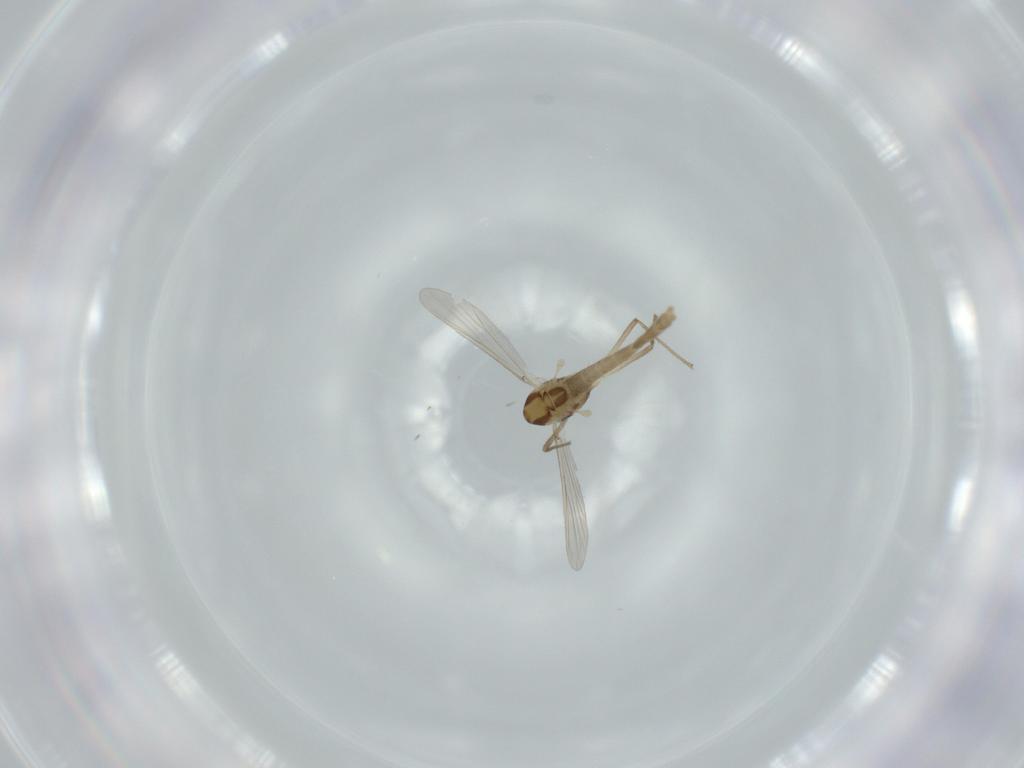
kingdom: Animalia
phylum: Arthropoda
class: Insecta
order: Diptera
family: Sciaridae
